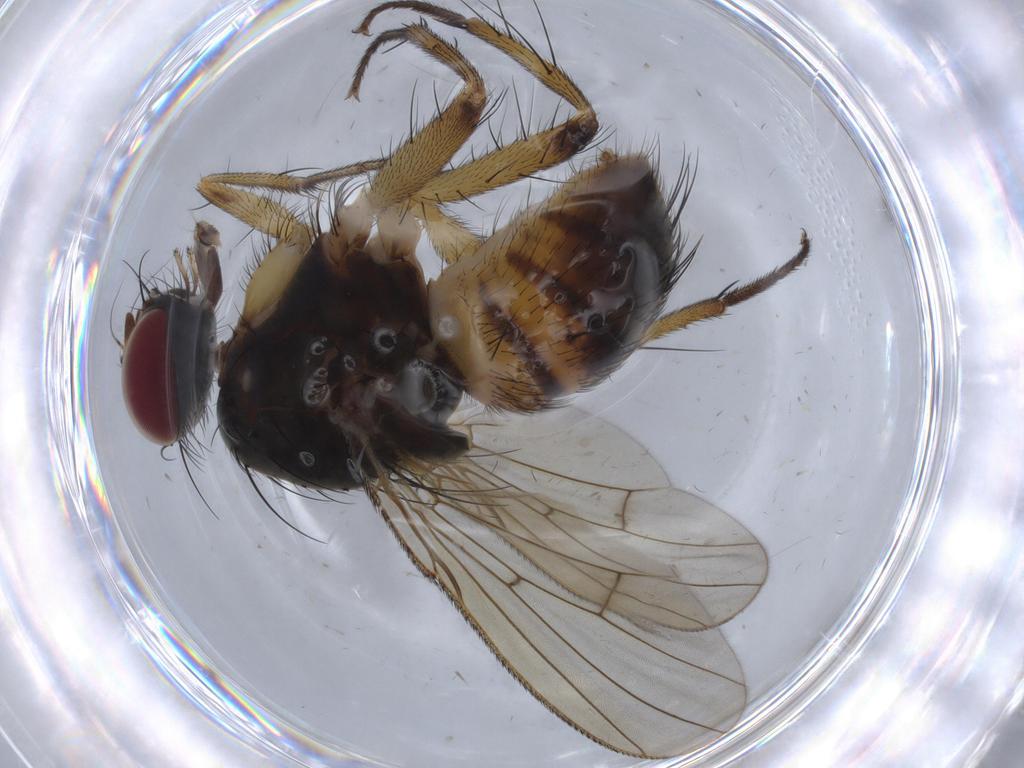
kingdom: Animalia
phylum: Arthropoda
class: Insecta
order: Diptera
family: Muscidae
